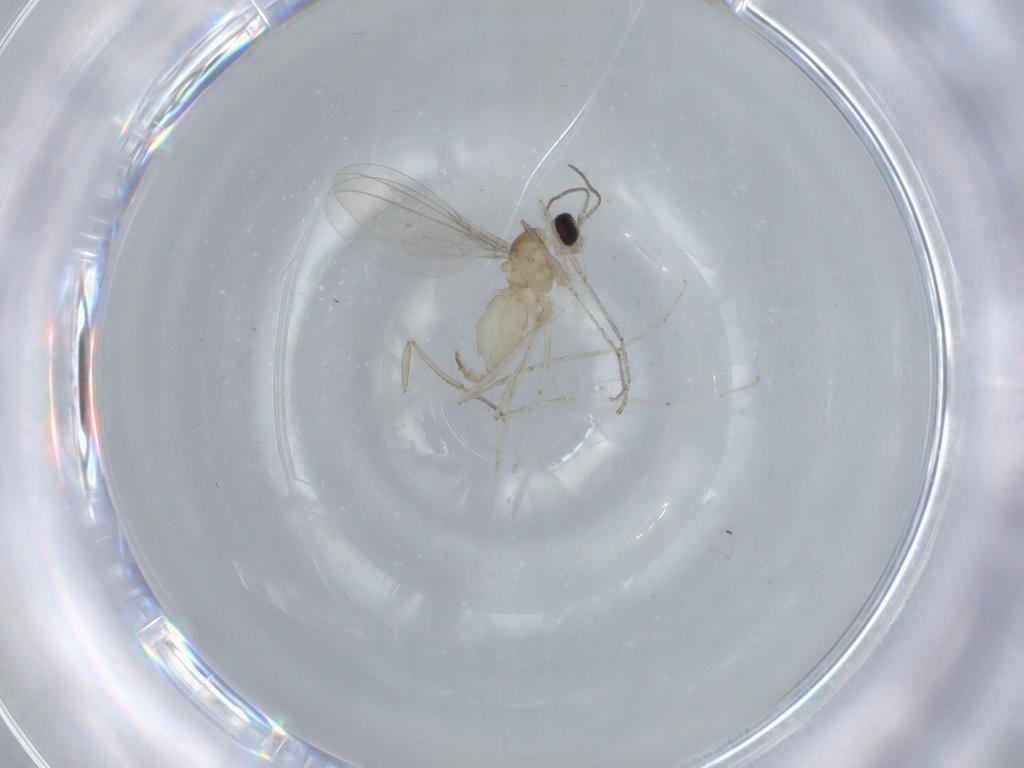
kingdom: Animalia
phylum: Arthropoda
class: Insecta
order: Diptera
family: Cecidomyiidae
